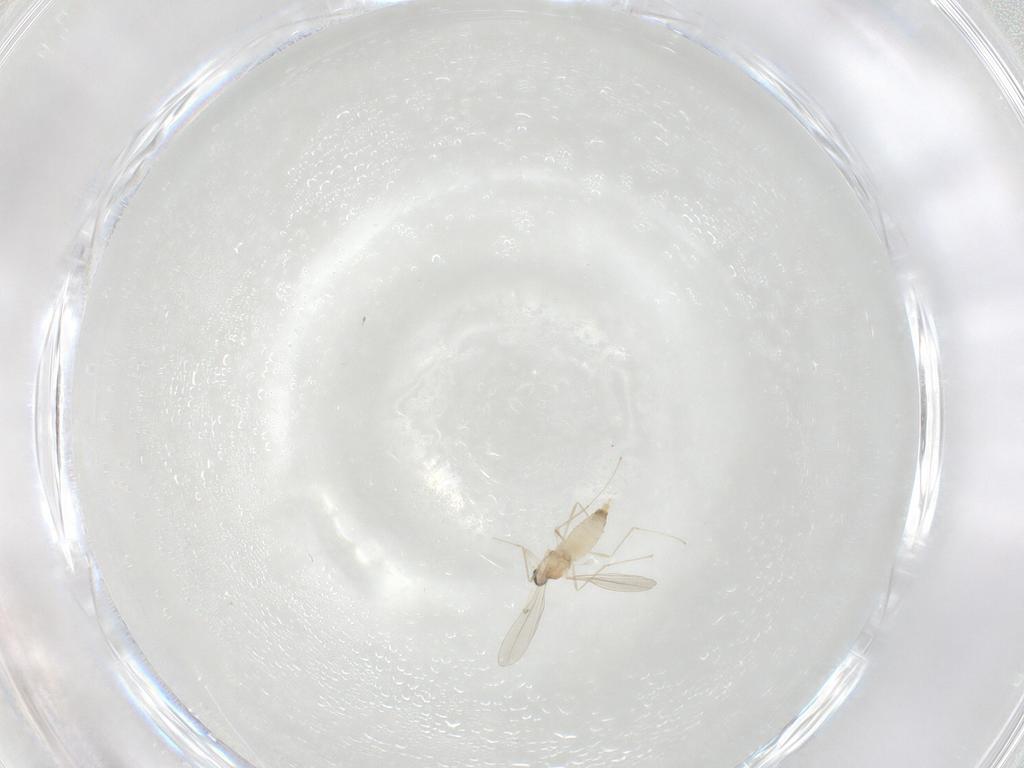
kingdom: Animalia
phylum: Arthropoda
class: Insecta
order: Diptera
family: Cecidomyiidae
